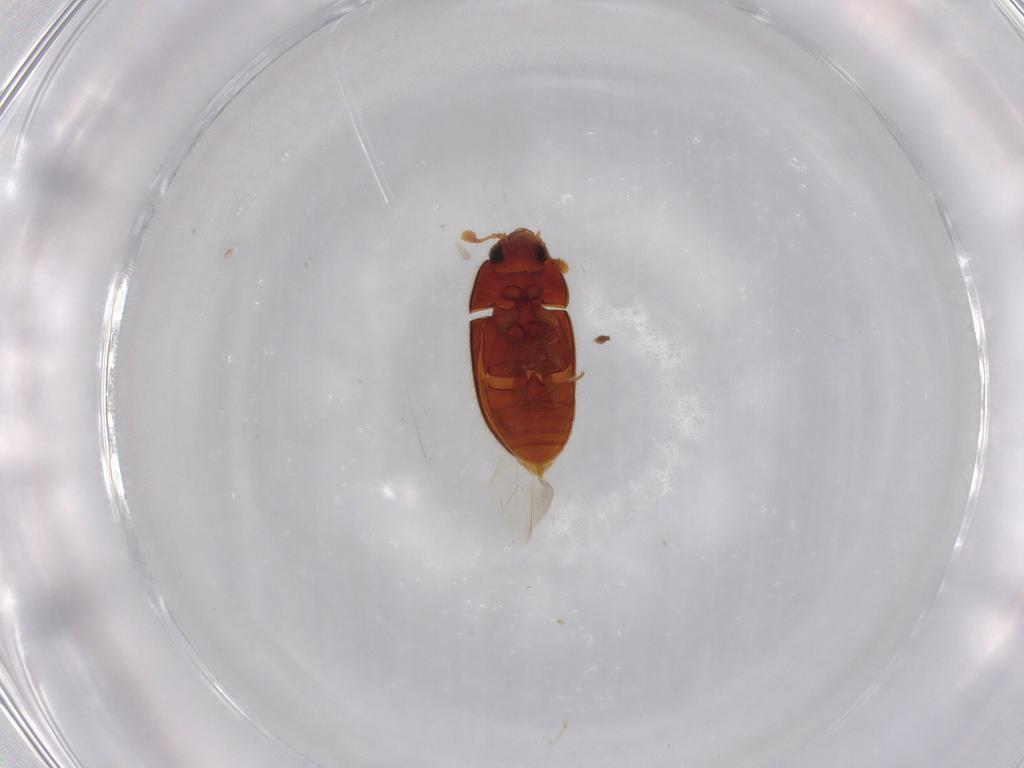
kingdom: Animalia
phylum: Arthropoda
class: Insecta
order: Coleoptera
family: Biphyllidae
